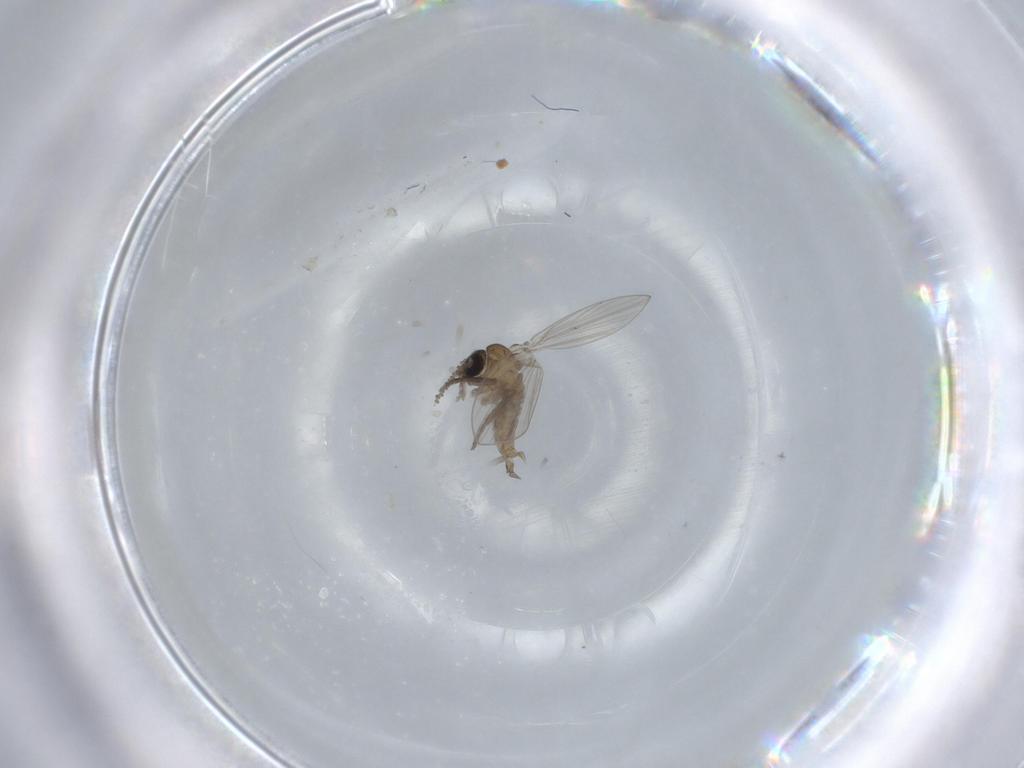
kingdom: Animalia
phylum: Arthropoda
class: Insecta
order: Diptera
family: Psychodidae
